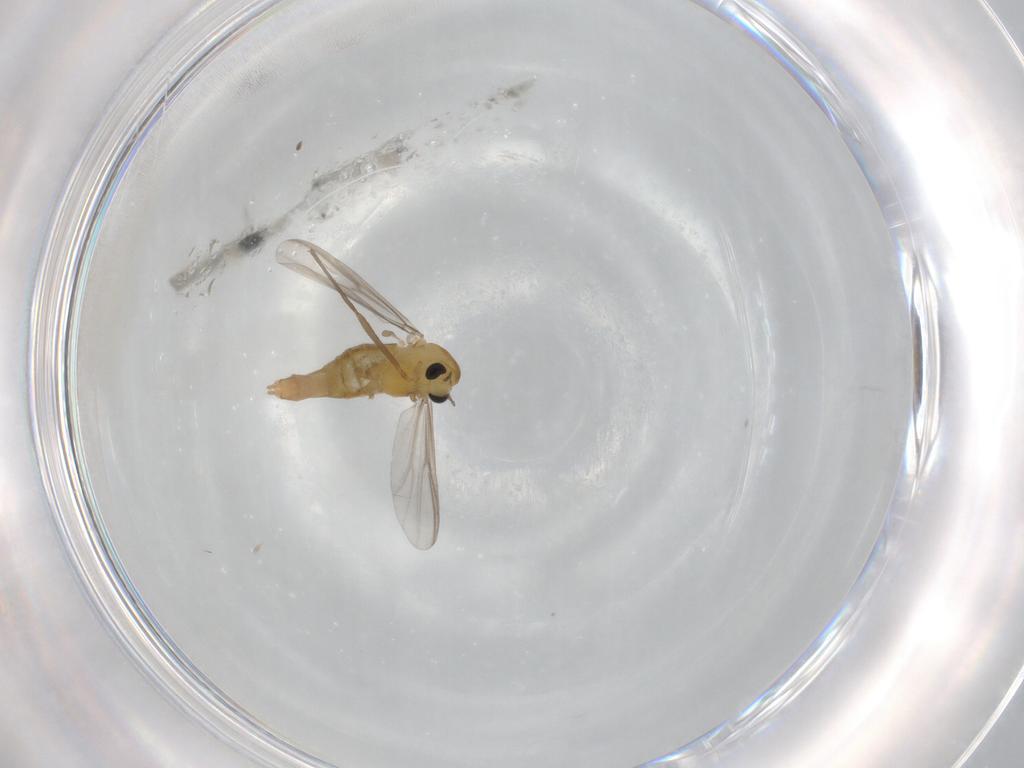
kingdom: Animalia
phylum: Arthropoda
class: Insecta
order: Diptera
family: Chironomidae
